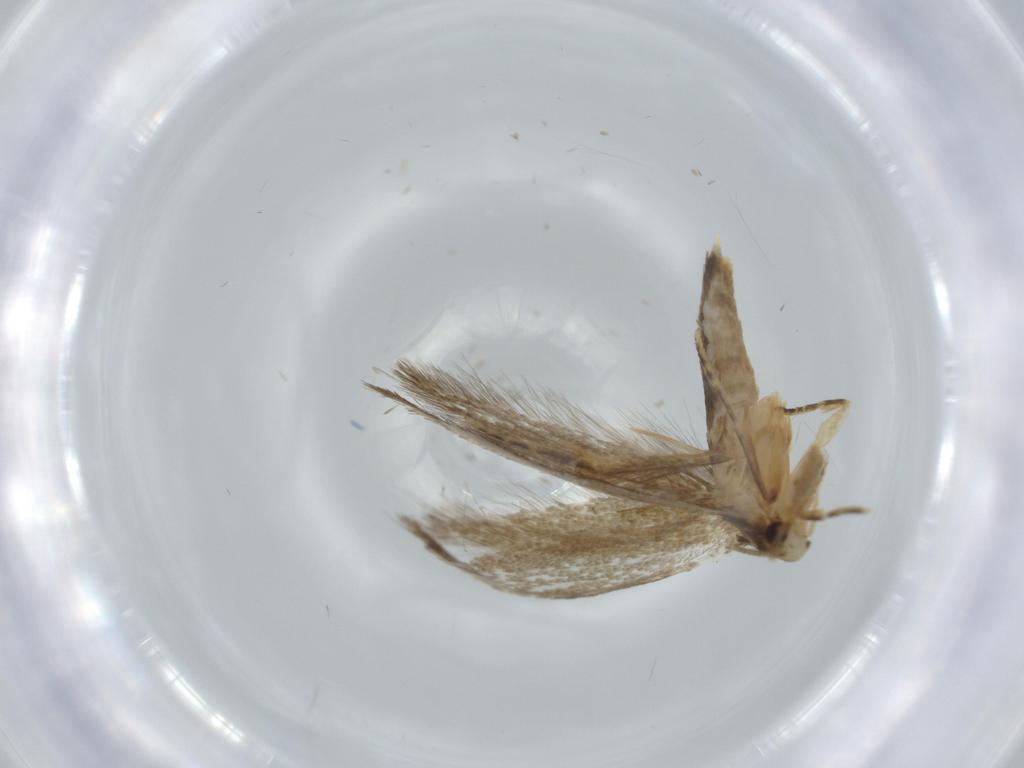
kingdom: Animalia
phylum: Arthropoda
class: Insecta
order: Lepidoptera
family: Tineidae
